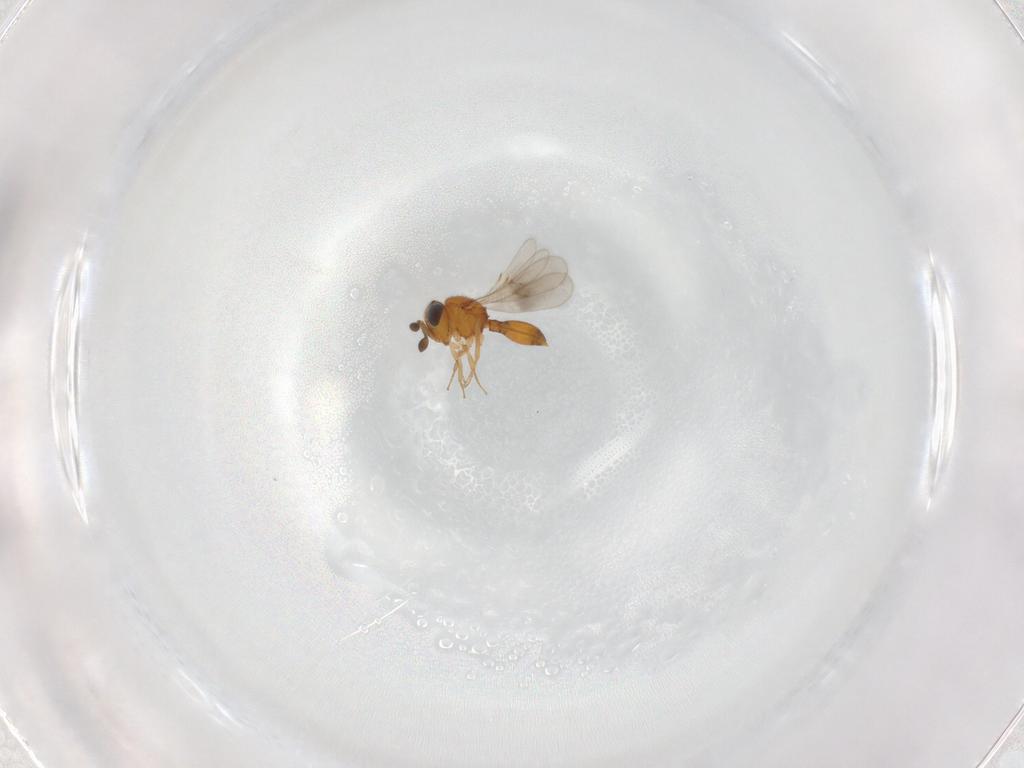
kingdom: Animalia
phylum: Arthropoda
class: Insecta
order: Hymenoptera
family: Scelionidae
